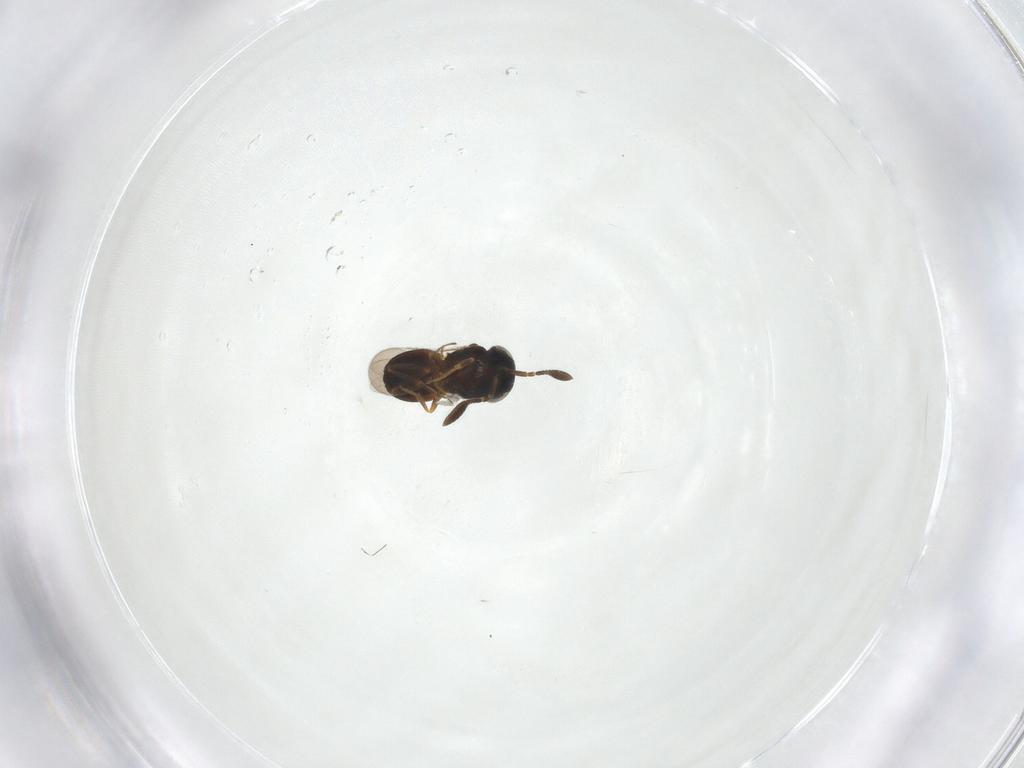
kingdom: Animalia
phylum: Arthropoda
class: Insecta
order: Coleoptera
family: Curculionidae
